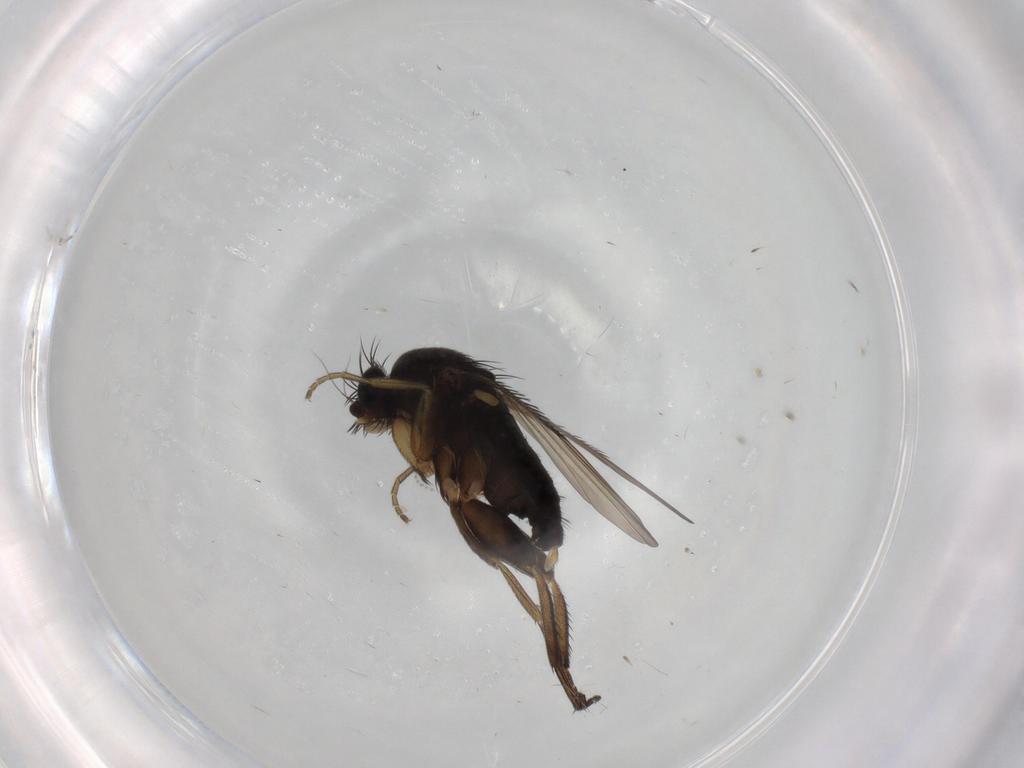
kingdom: Animalia
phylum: Arthropoda
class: Insecta
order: Diptera
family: Phoridae
